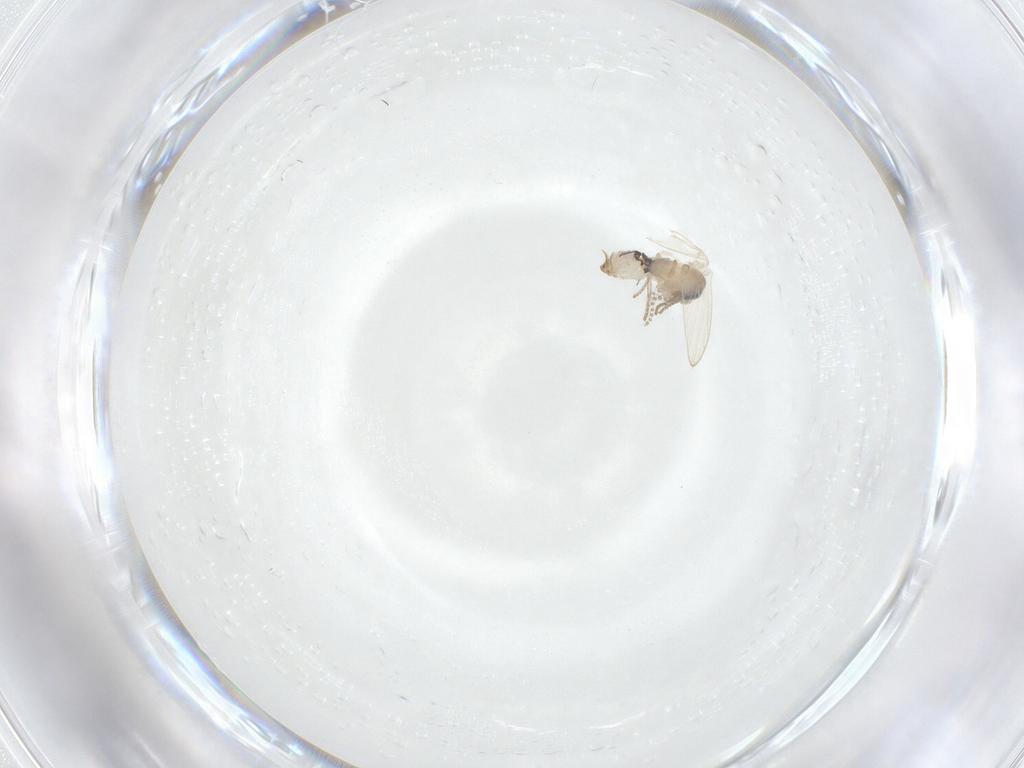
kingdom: Animalia
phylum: Arthropoda
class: Insecta
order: Diptera
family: Psychodidae
